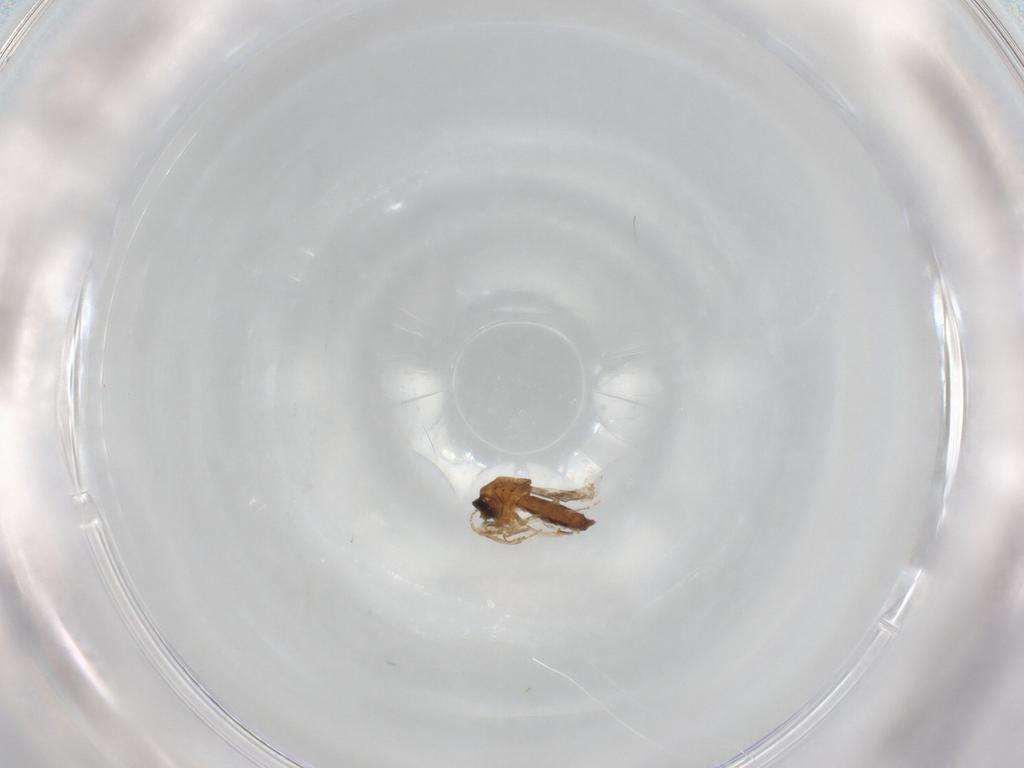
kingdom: Animalia
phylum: Arthropoda
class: Insecta
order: Diptera
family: Ceratopogonidae
